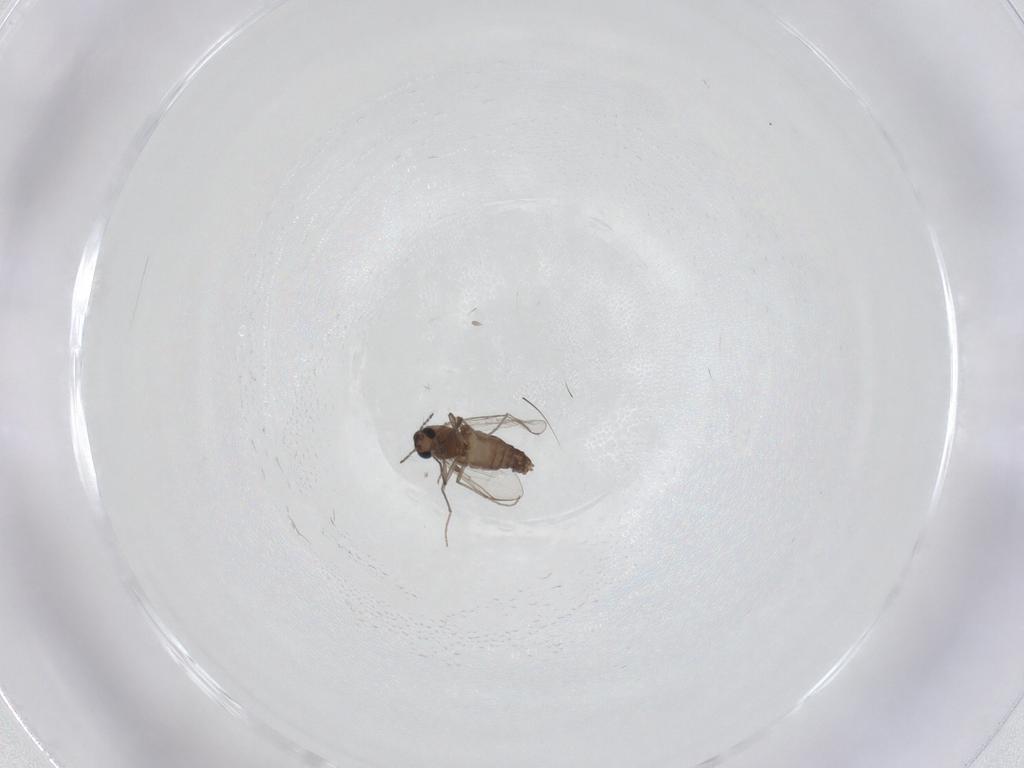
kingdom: Animalia
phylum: Arthropoda
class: Insecta
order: Diptera
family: Chironomidae
